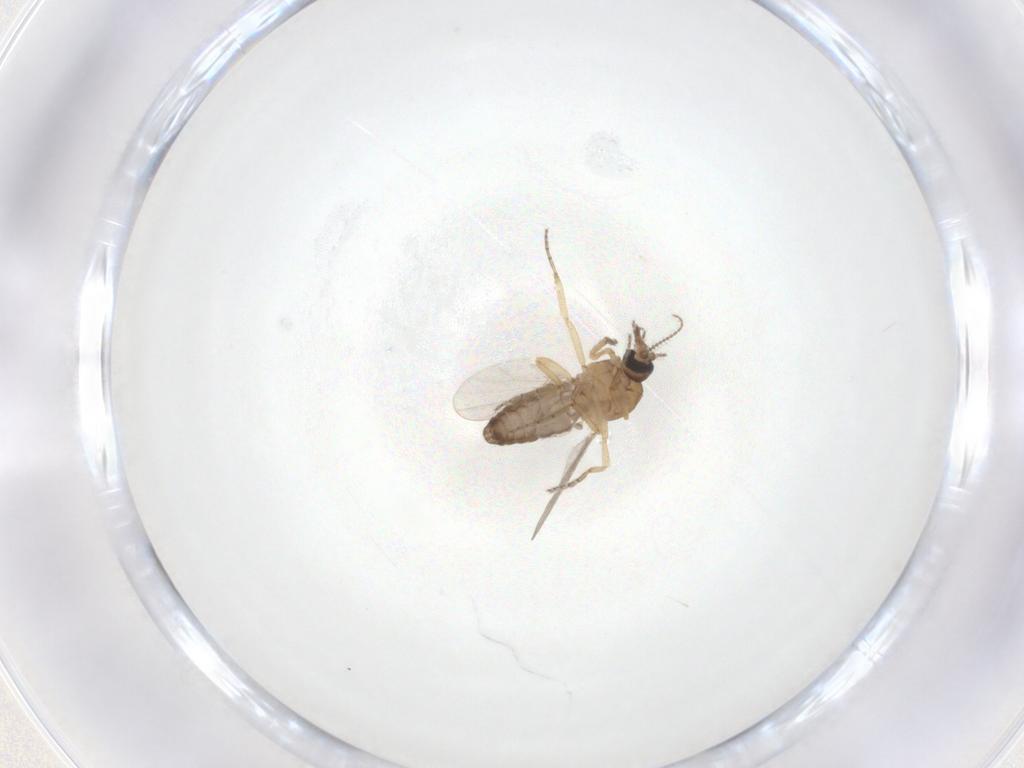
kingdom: Animalia
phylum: Arthropoda
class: Insecta
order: Diptera
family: Ceratopogonidae
